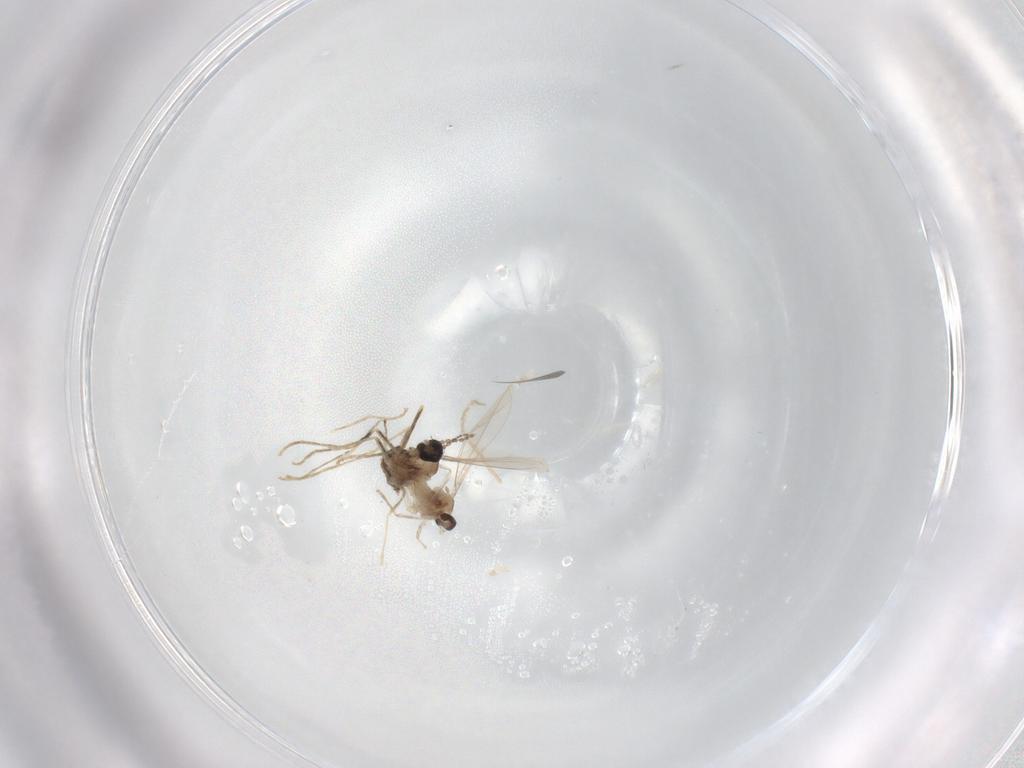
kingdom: Animalia
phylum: Arthropoda
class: Insecta
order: Diptera
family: Cecidomyiidae
